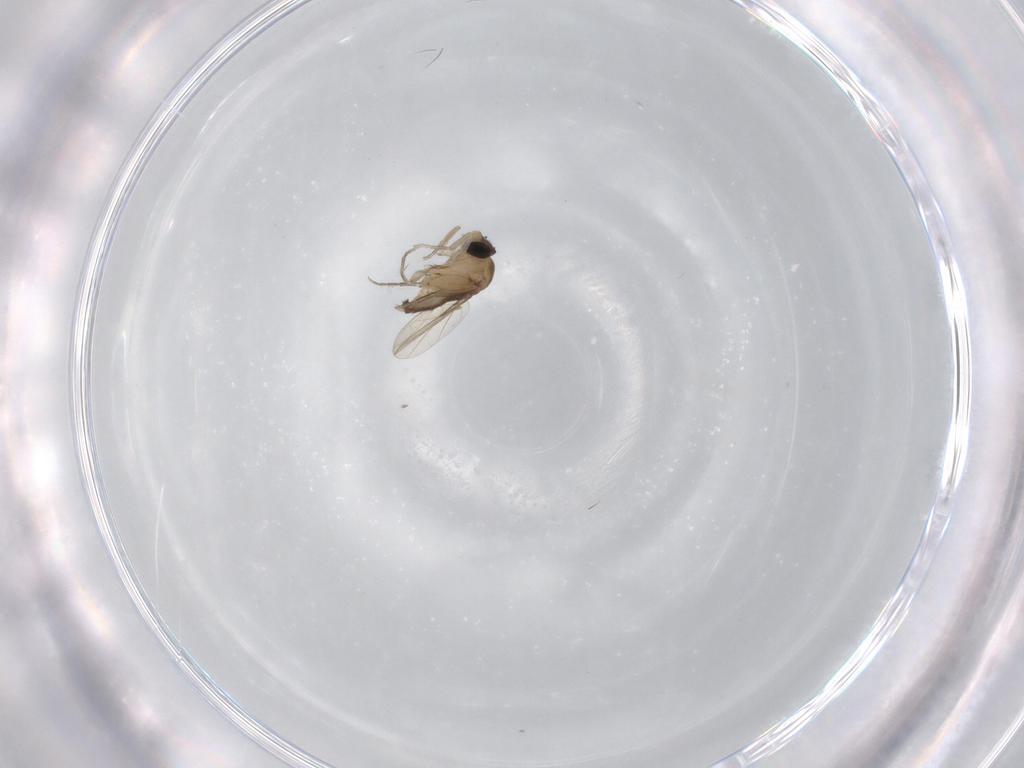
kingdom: Animalia
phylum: Arthropoda
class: Insecta
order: Diptera
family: Phoridae
